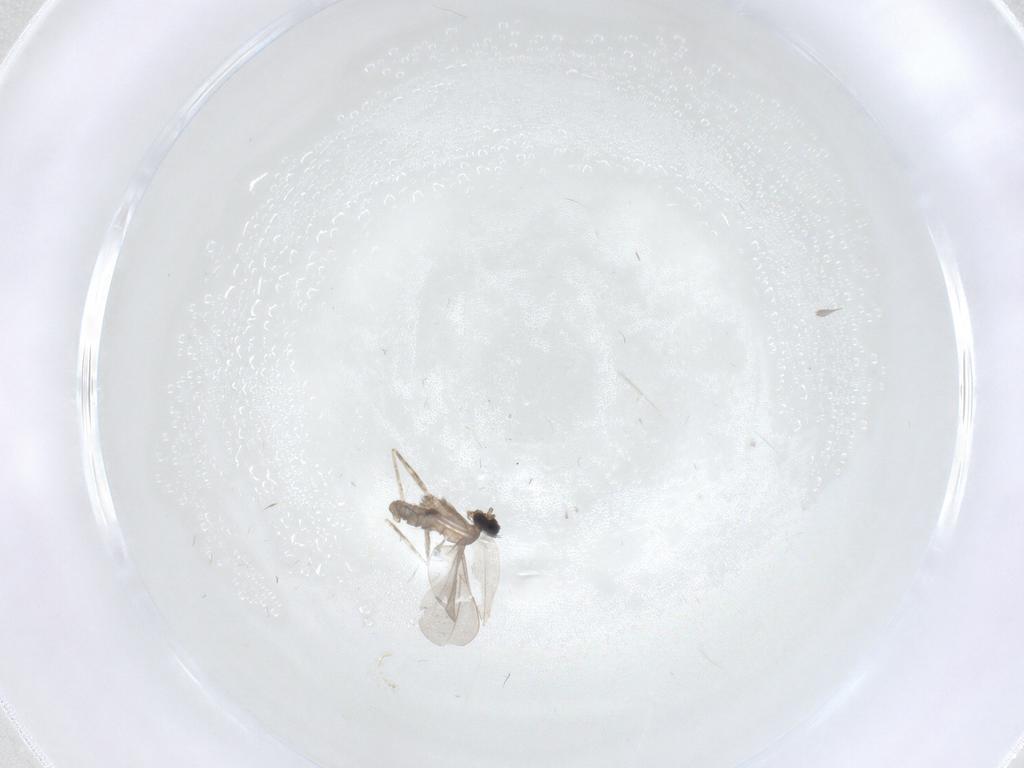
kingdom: Animalia
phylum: Arthropoda
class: Insecta
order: Diptera
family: Cecidomyiidae
